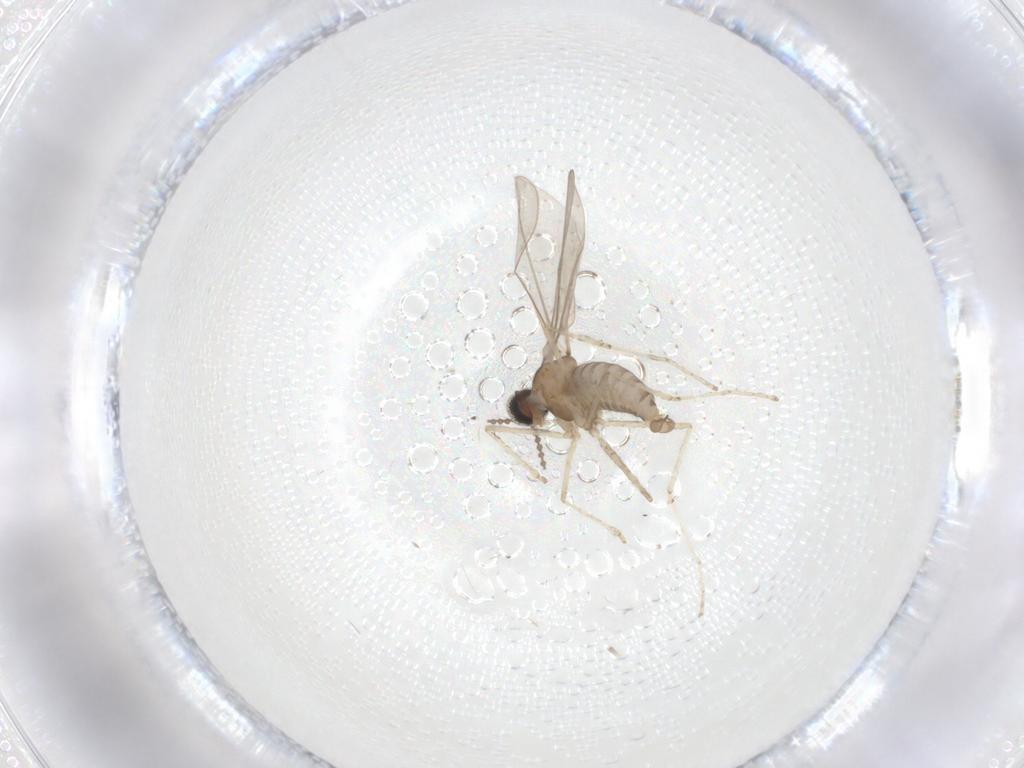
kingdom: Animalia
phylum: Arthropoda
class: Insecta
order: Diptera
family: Cecidomyiidae
